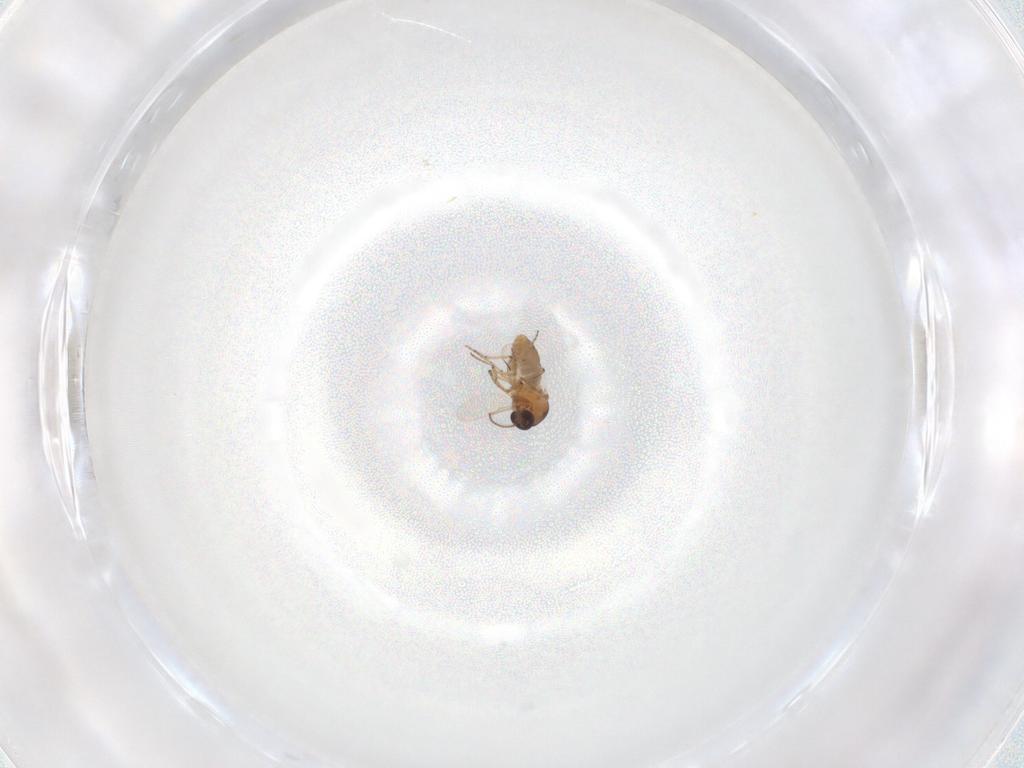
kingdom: Animalia
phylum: Arthropoda
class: Insecta
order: Diptera
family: Ceratopogonidae
